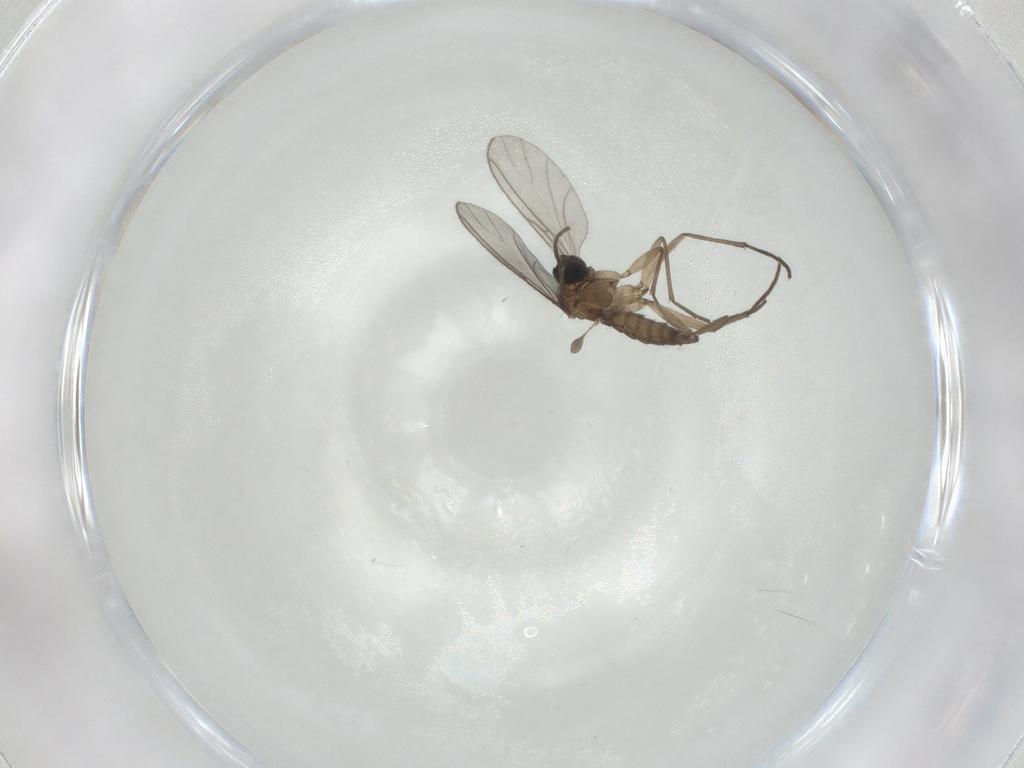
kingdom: Animalia
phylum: Arthropoda
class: Insecta
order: Diptera
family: Sciaridae
